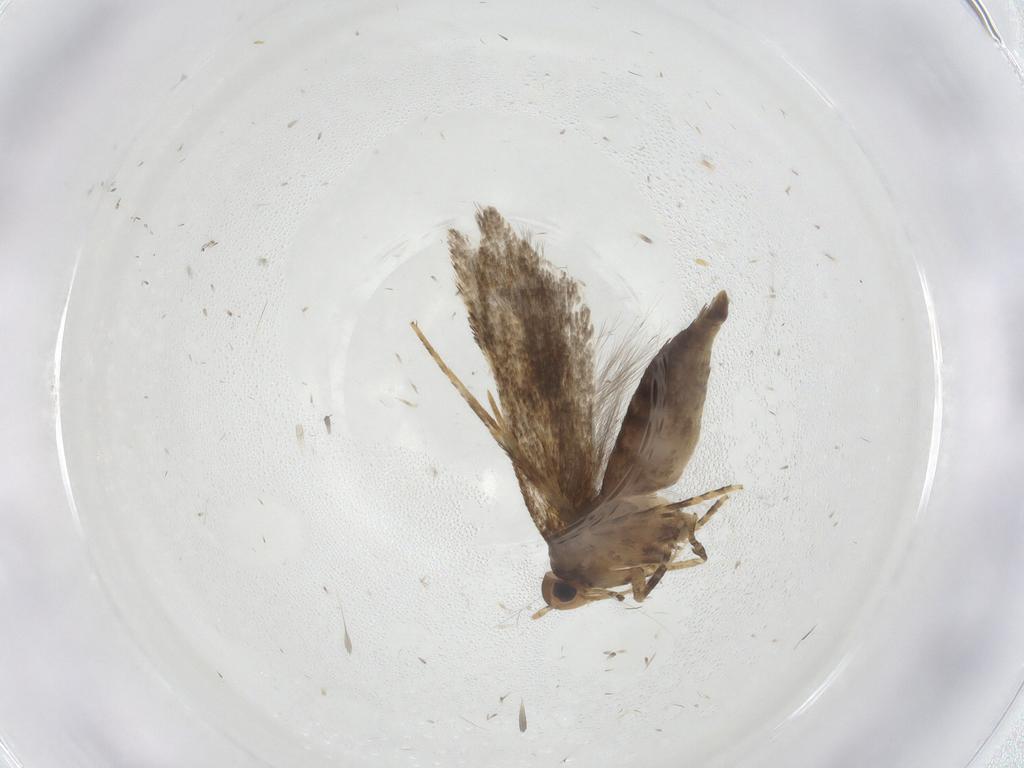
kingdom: Animalia
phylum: Arthropoda
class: Insecta
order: Lepidoptera
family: Oecophoridae
